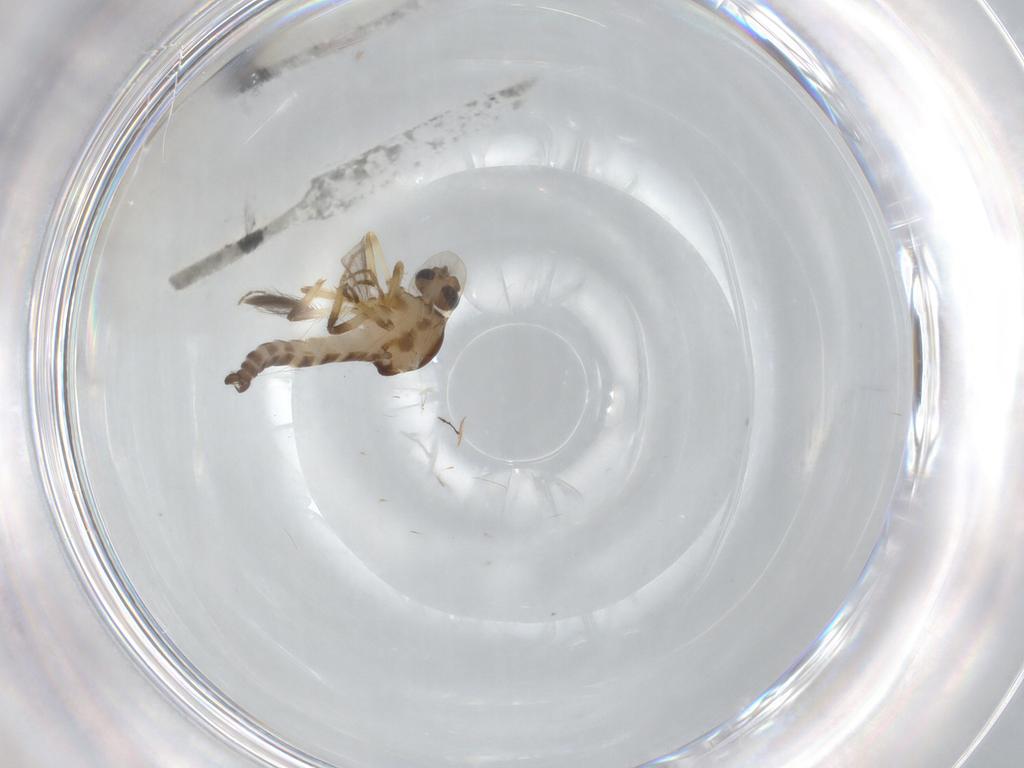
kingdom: Animalia
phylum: Arthropoda
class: Insecta
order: Diptera
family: Ceratopogonidae
